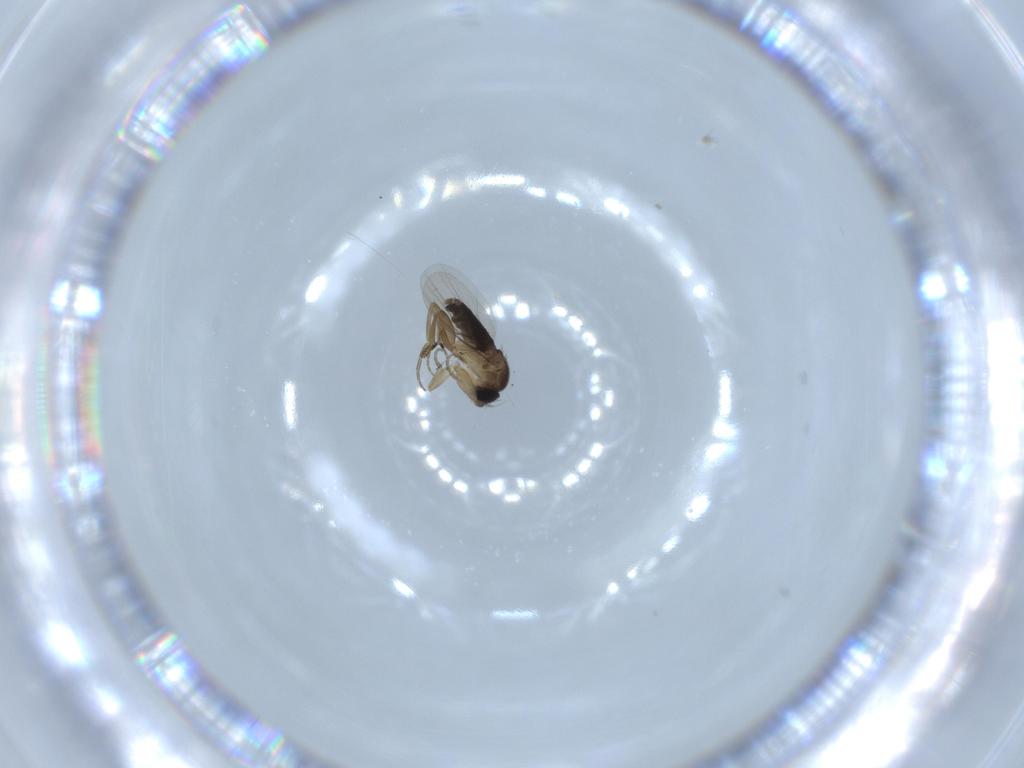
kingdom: Animalia
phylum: Arthropoda
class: Insecta
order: Diptera
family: Phoridae
